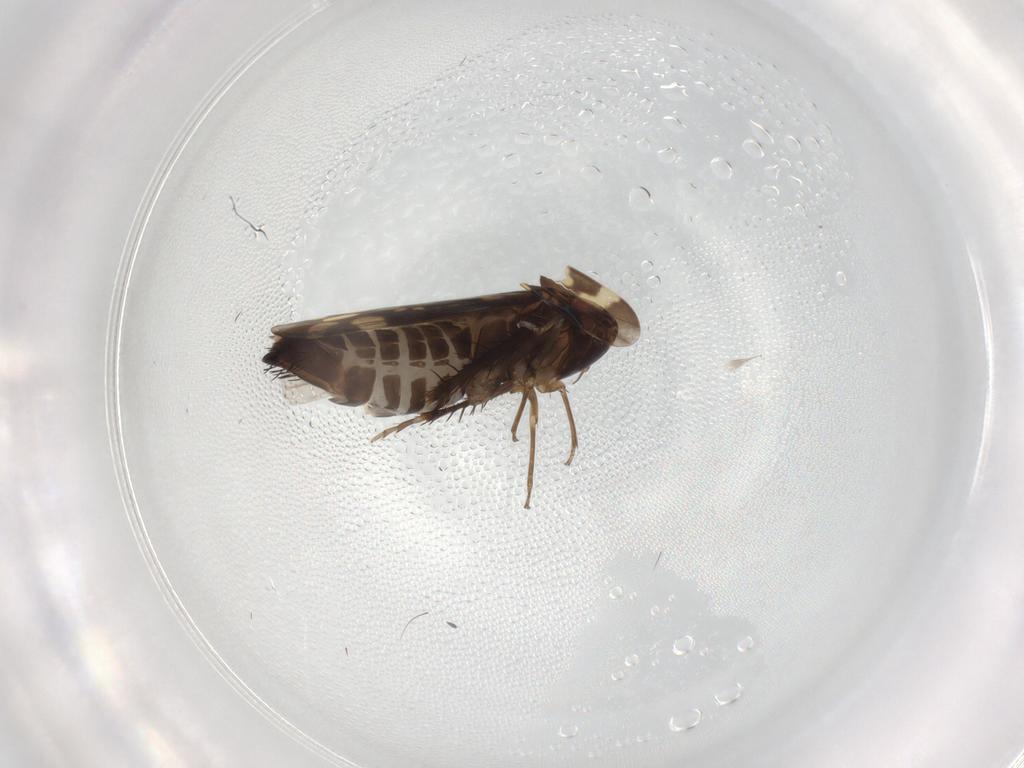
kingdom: Animalia
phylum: Arthropoda
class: Insecta
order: Hemiptera
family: Cicadellidae
